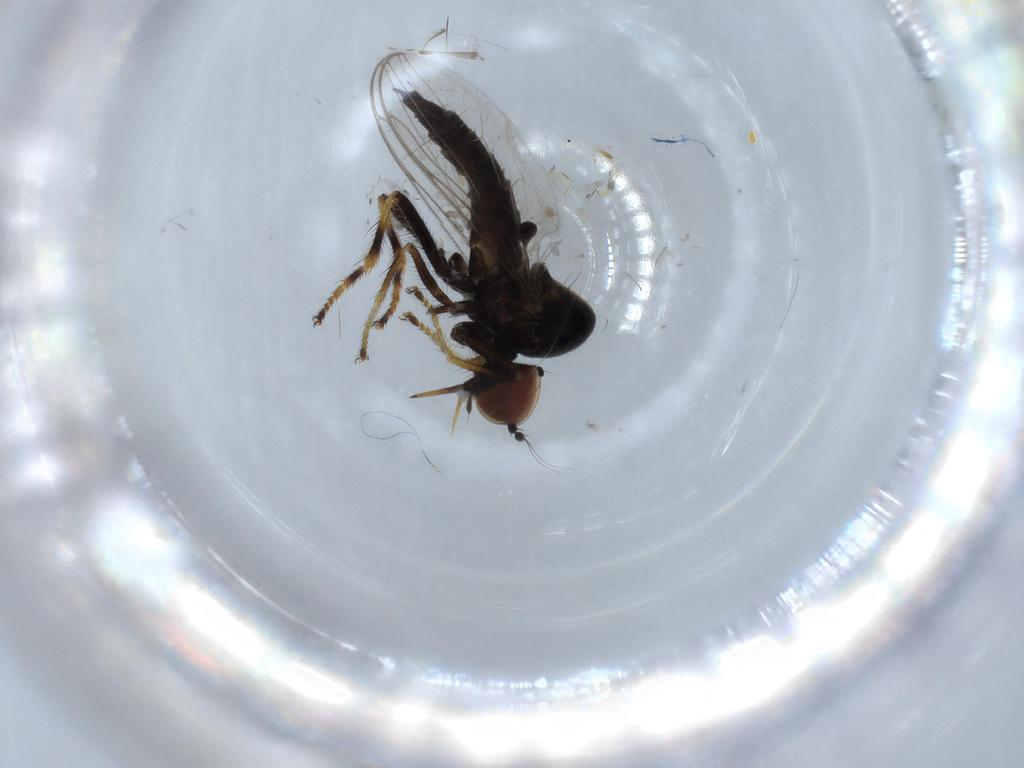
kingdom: Animalia
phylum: Arthropoda
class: Insecta
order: Diptera
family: Hybotidae
